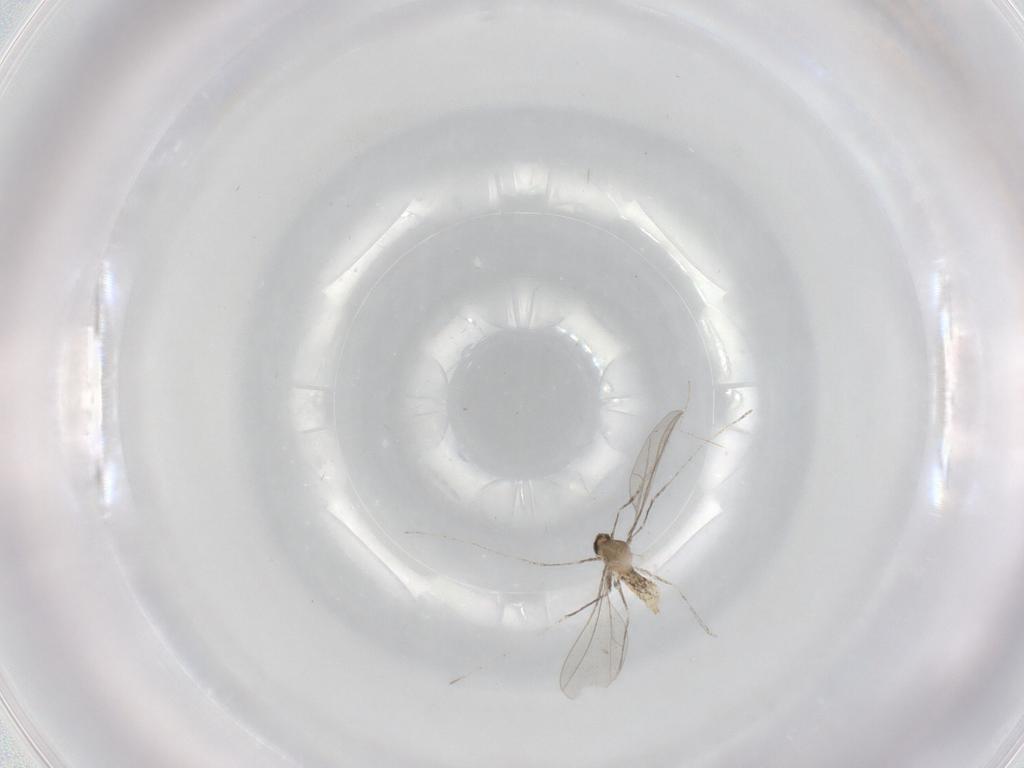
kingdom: Animalia
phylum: Arthropoda
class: Insecta
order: Diptera
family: Cecidomyiidae
